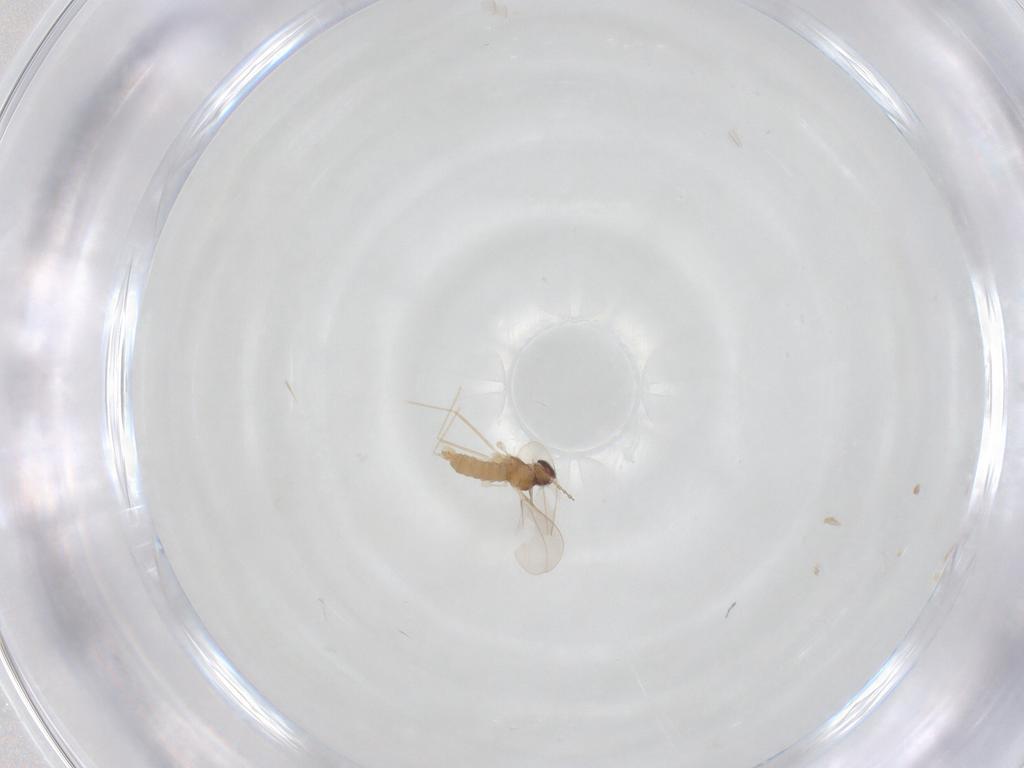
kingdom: Animalia
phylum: Arthropoda
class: Insecta
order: Diptera
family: Cecidomyiidae
